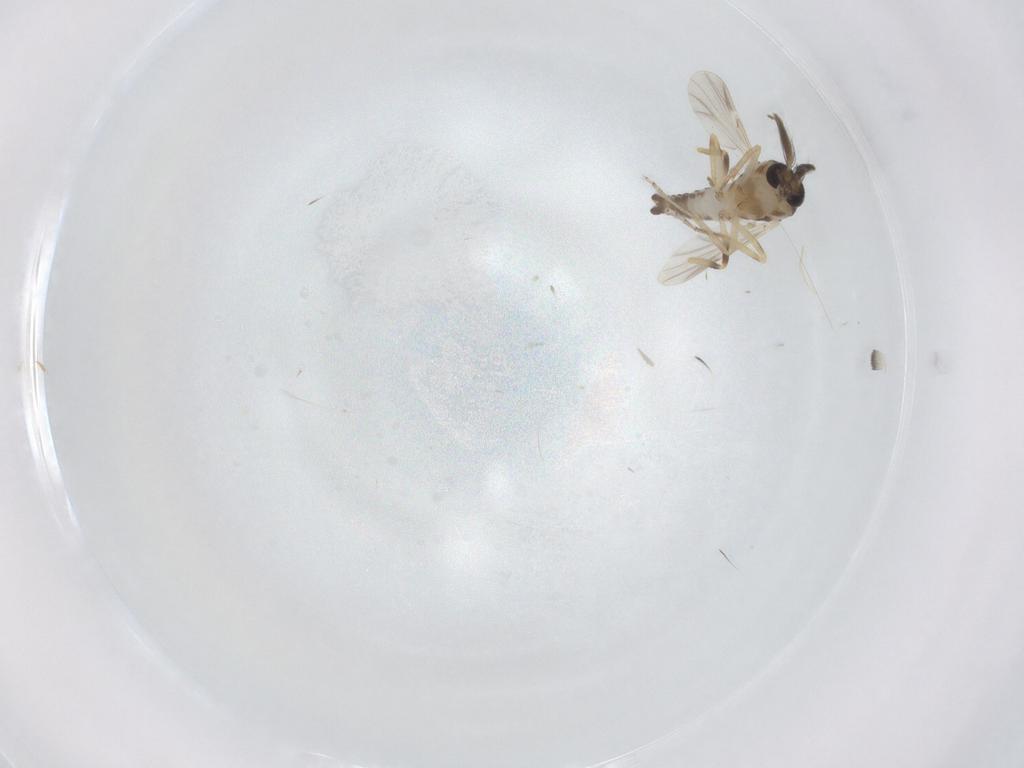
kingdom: Animalia
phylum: Arthropoda
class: Insecta
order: Diptera
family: Ceratopogonidae
